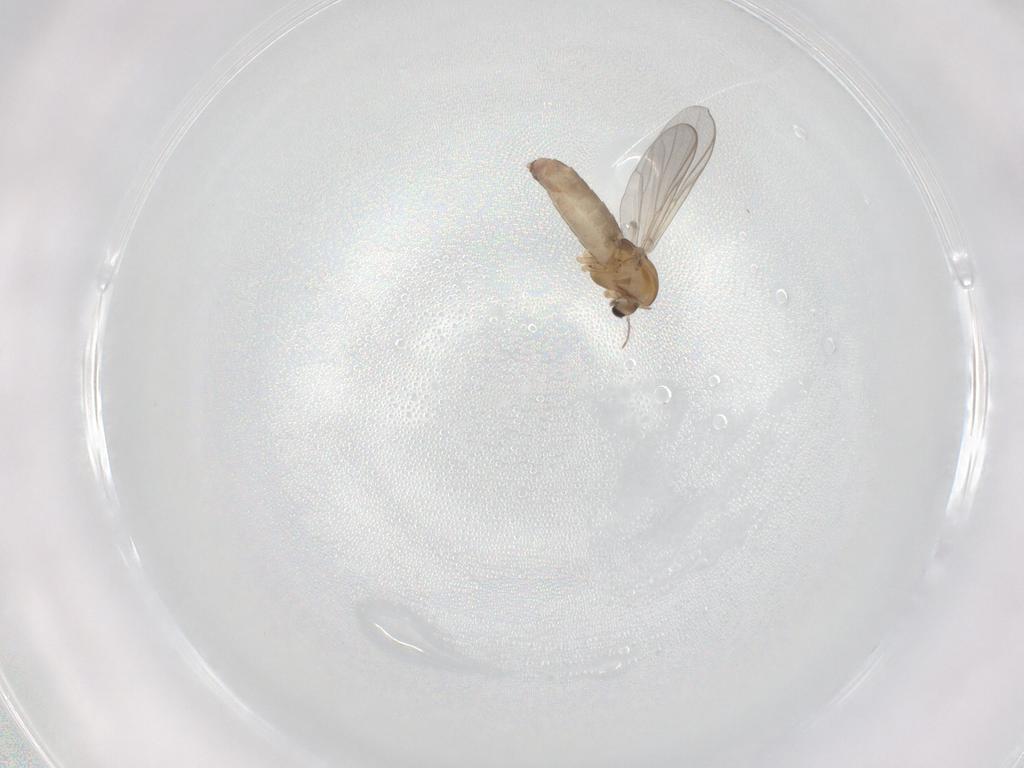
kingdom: Animalia
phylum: Arthropoda
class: Insecta
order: Diptera
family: Chironomidae
